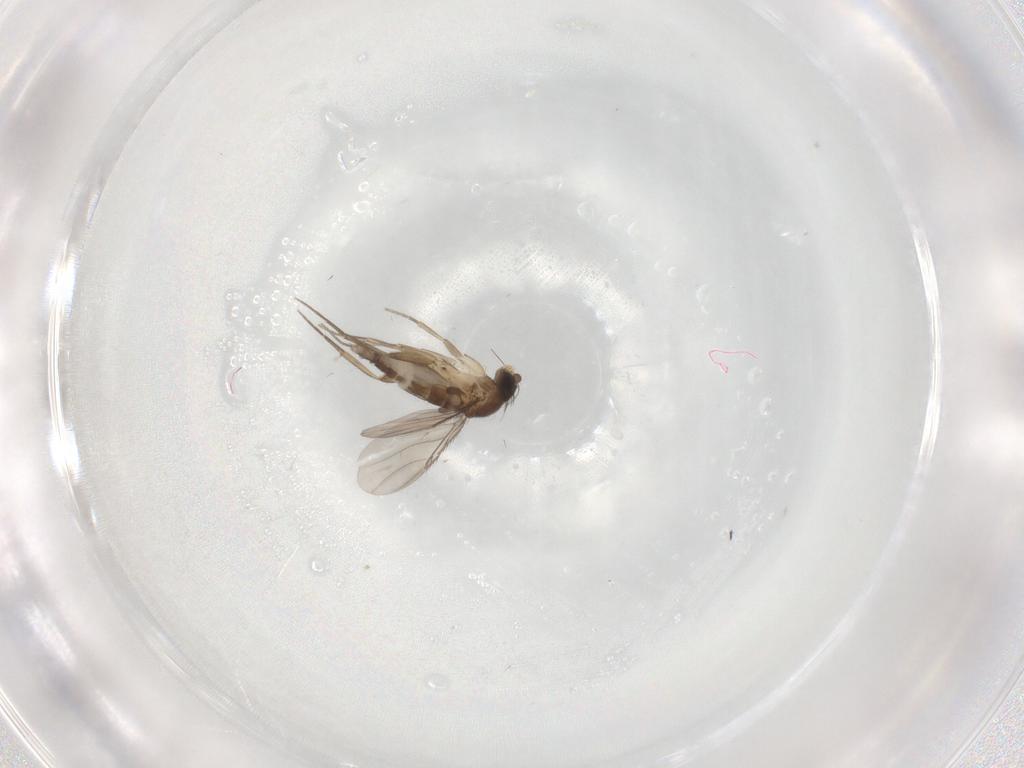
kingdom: Animalia
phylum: Arthropoda
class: Insecta
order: Diptera
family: Phoridae
